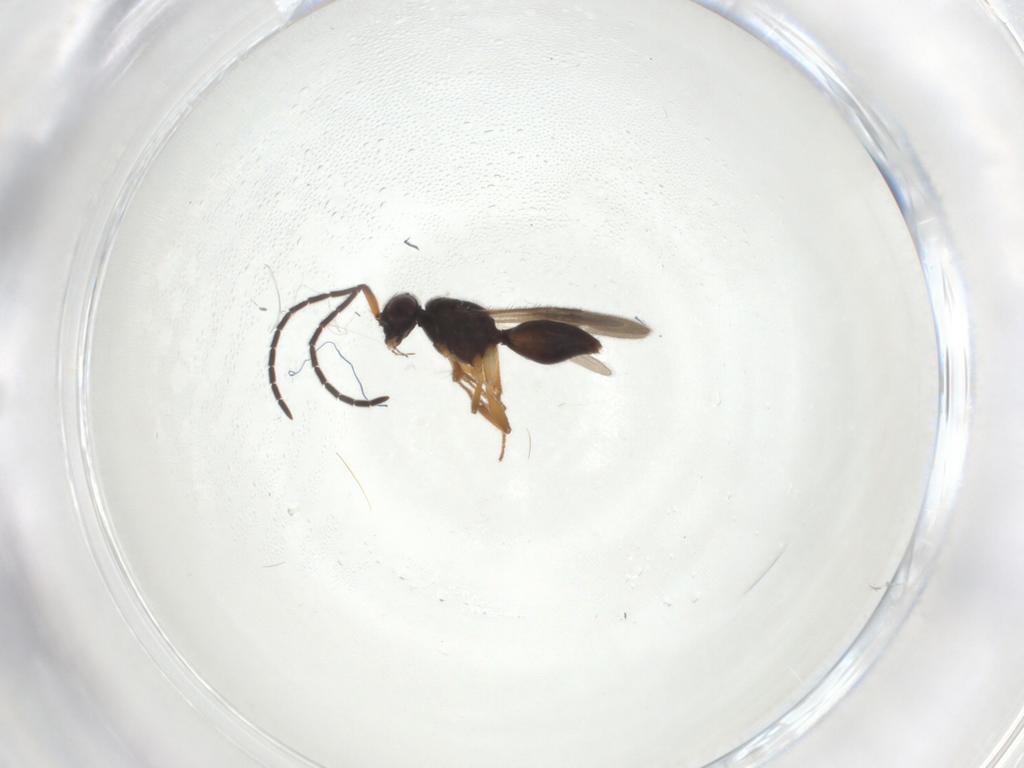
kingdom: Animalia
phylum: Arthropoda
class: Insecta
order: Hymenoptera
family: Megaspilidae
